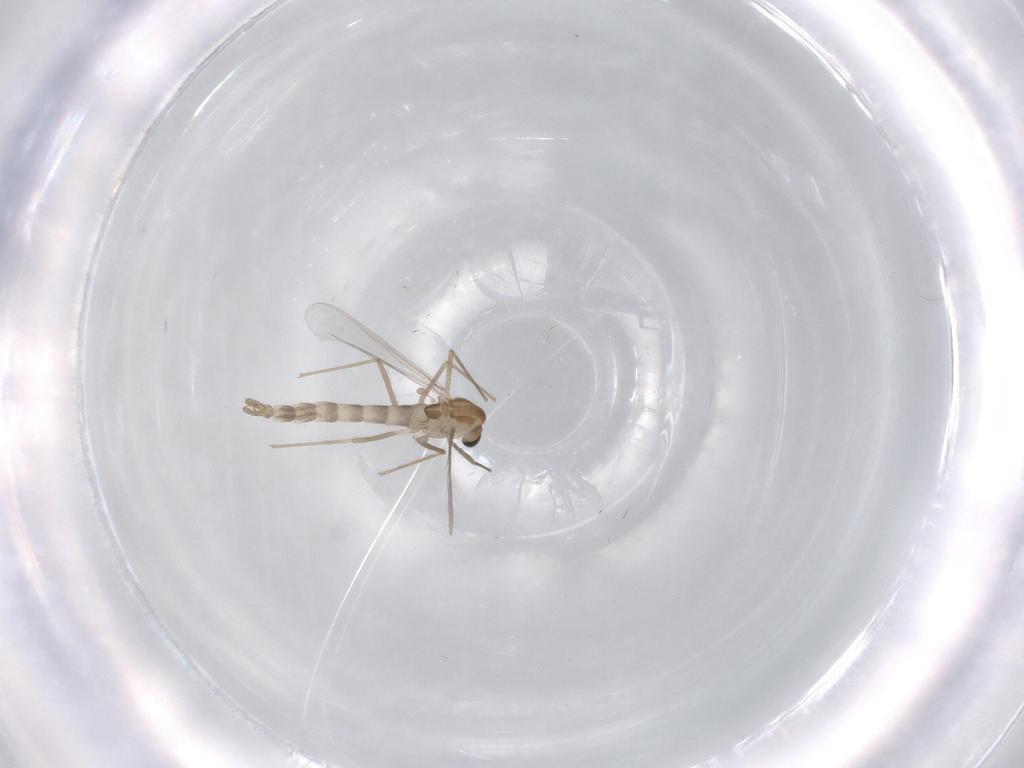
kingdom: Animalia
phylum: Arthropoda
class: Insecta
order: Diptera
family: Chironomidae
